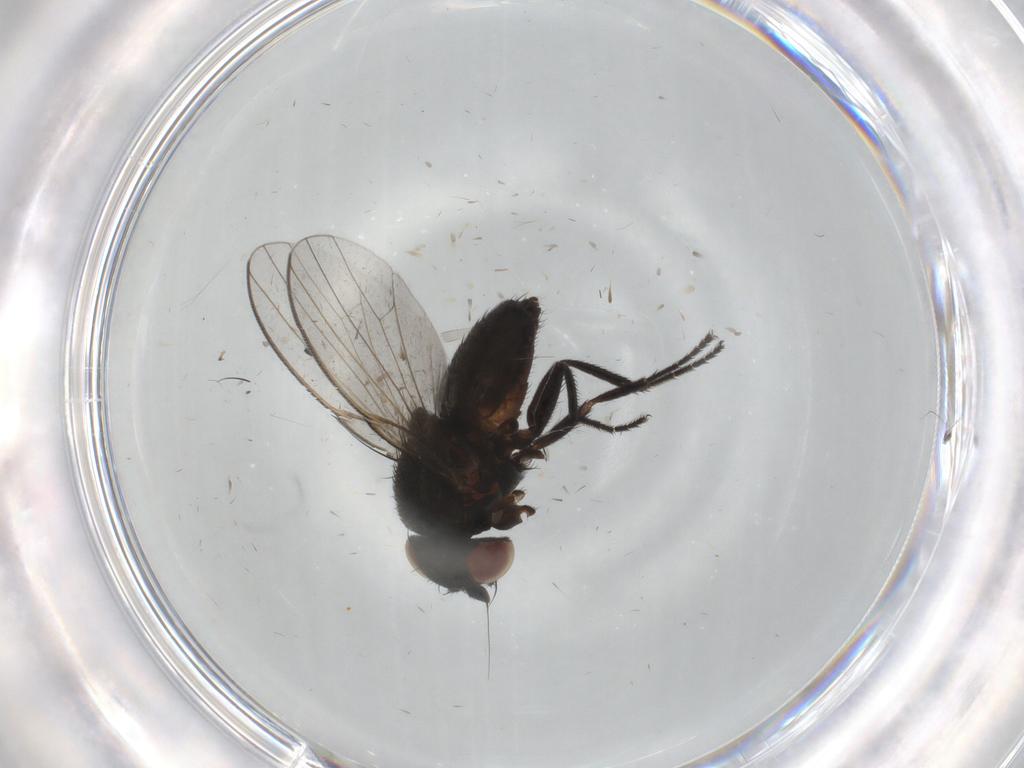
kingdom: Animalia
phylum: Arthropoda
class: Insecta
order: Diptera
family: Milichiidae
